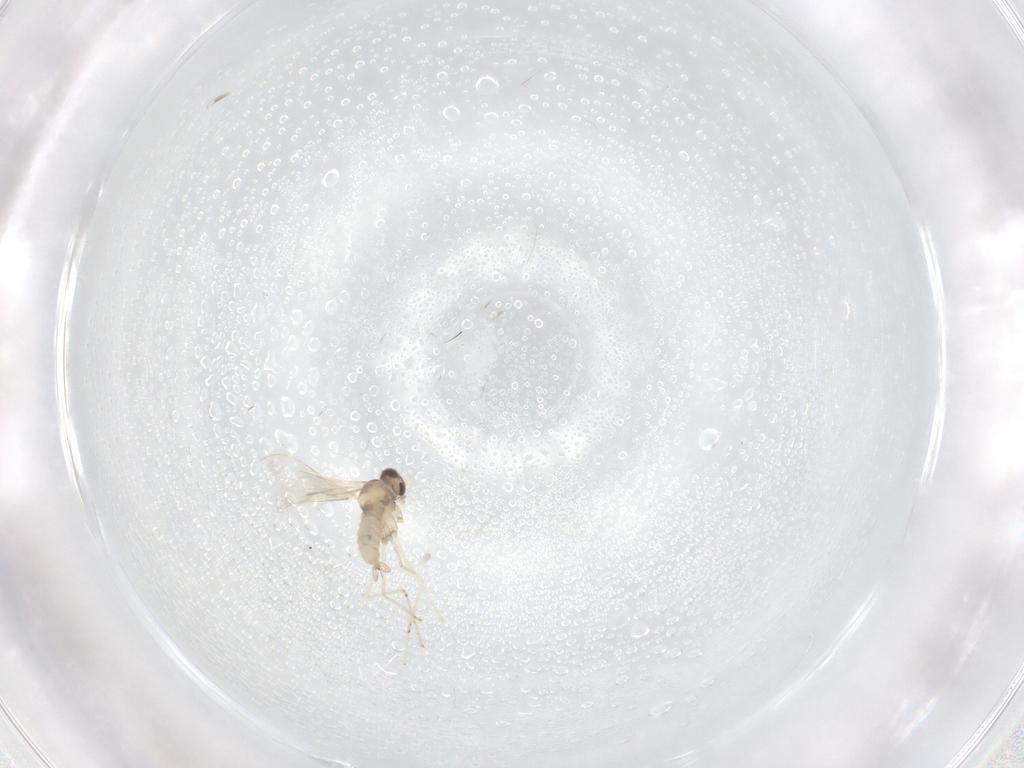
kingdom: Animalia
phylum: Arthropoda
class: Insecta
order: Diptera
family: Cecidomyiidae
